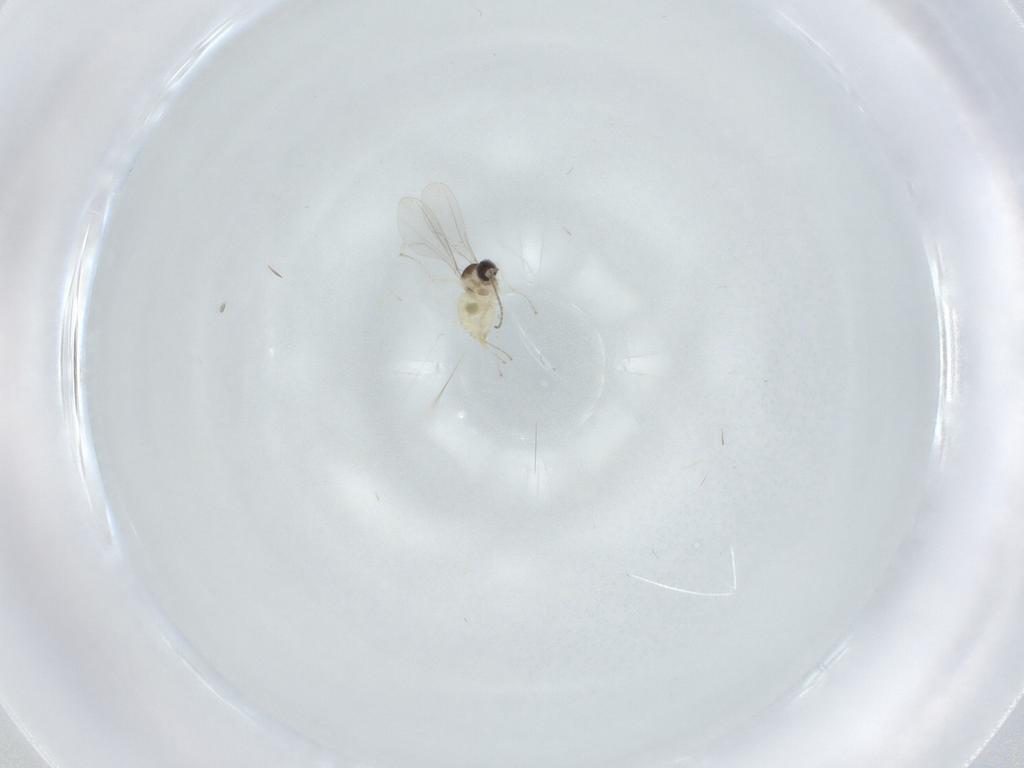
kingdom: Animalia
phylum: Arthropoda
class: Insecta
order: Diptera
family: Cecidomyiidae
